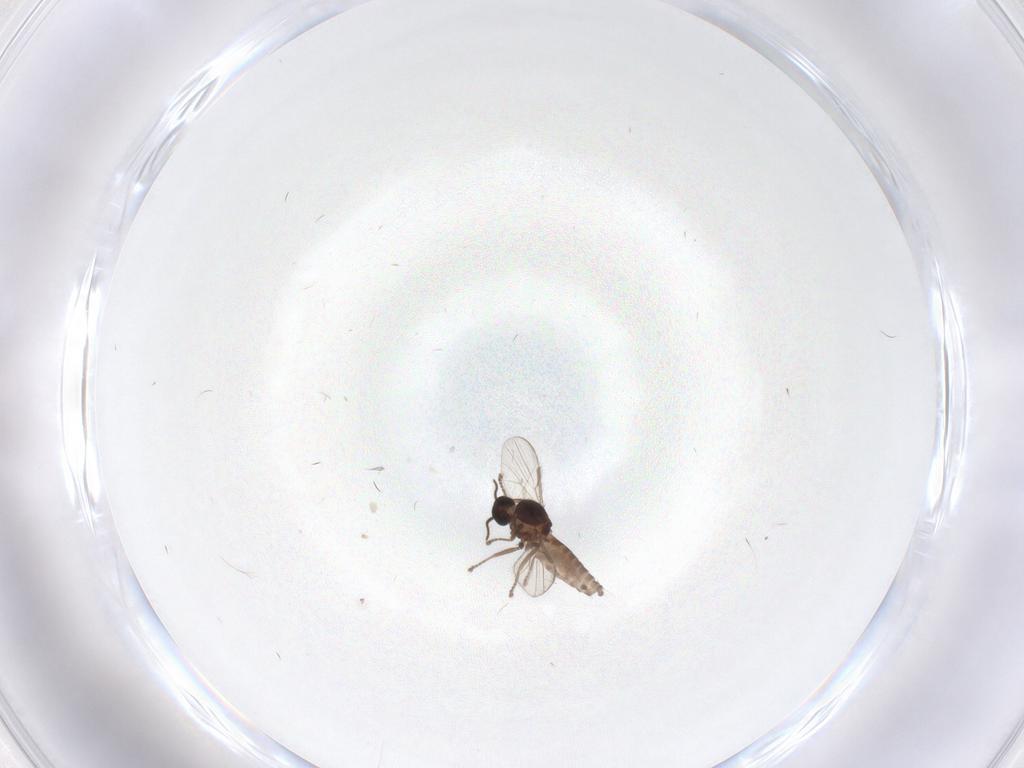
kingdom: Animalia
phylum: Arthropoda
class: Insecta
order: Diptera
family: Ceratopogonidae
